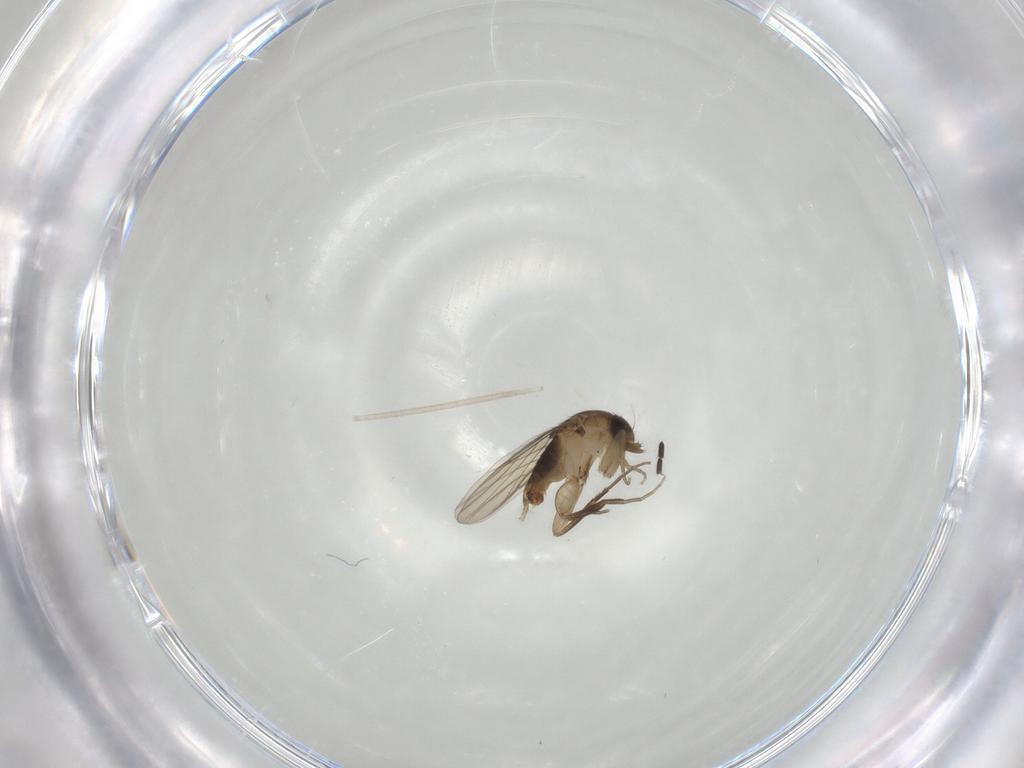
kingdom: Animalia
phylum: Arthropoda
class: Insecta
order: Diptera
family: Phoridae
